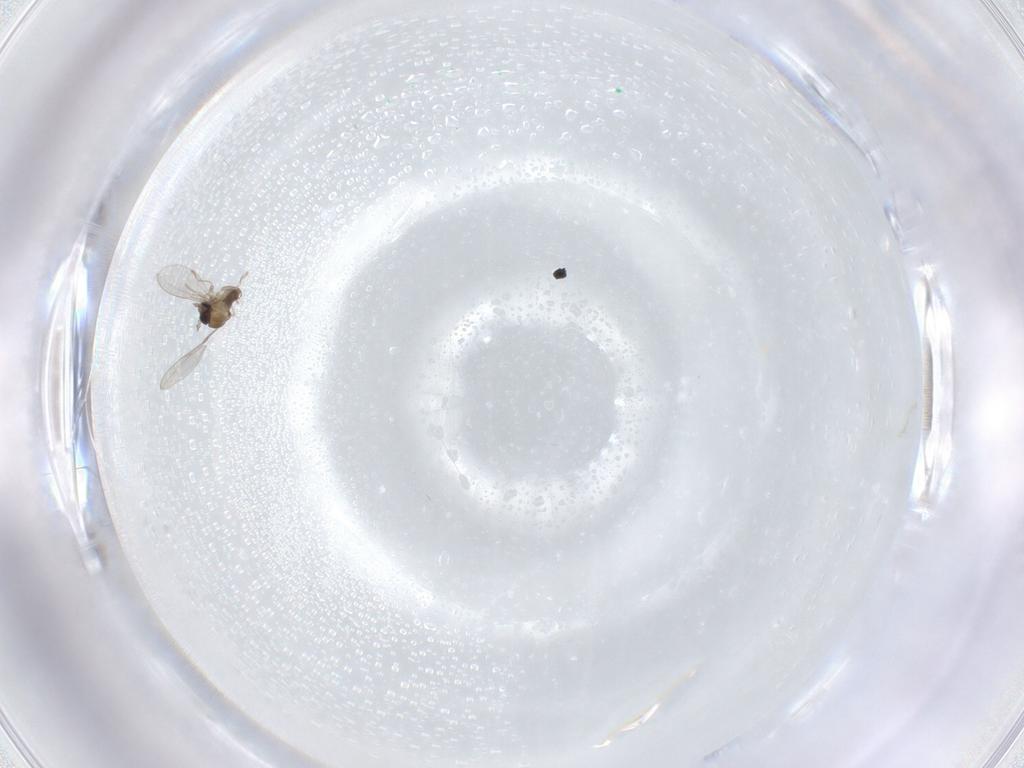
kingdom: Animalia
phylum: Arthropoda
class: Insecta
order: Diptera
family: Cecidomyiidae
